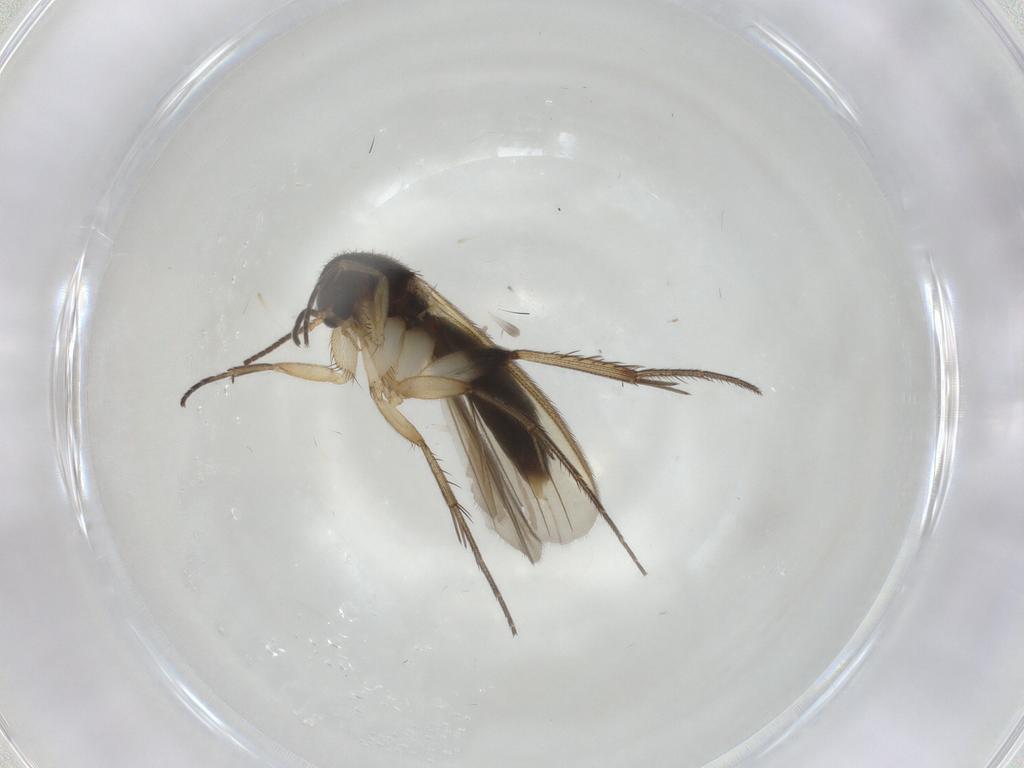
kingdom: Animalia
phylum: Arthropoda
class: Insecta
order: Diptera
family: Mycetophilidae
